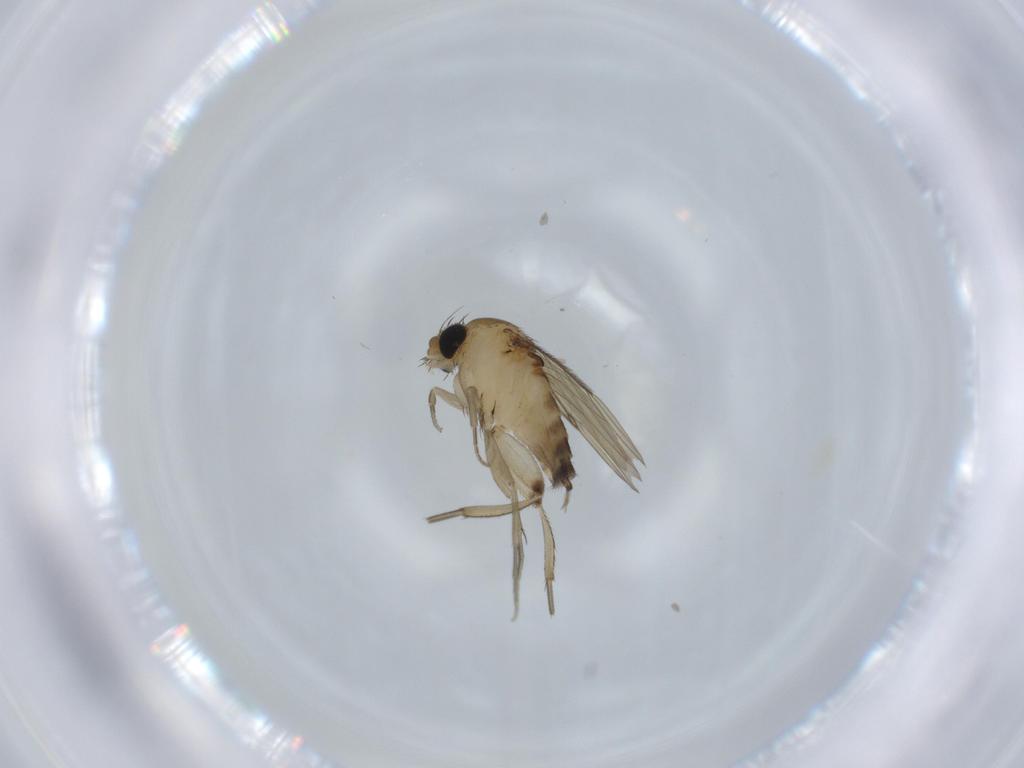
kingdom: Animalia
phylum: Arthropoda
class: Insecta
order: Diptera
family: Phoridae
